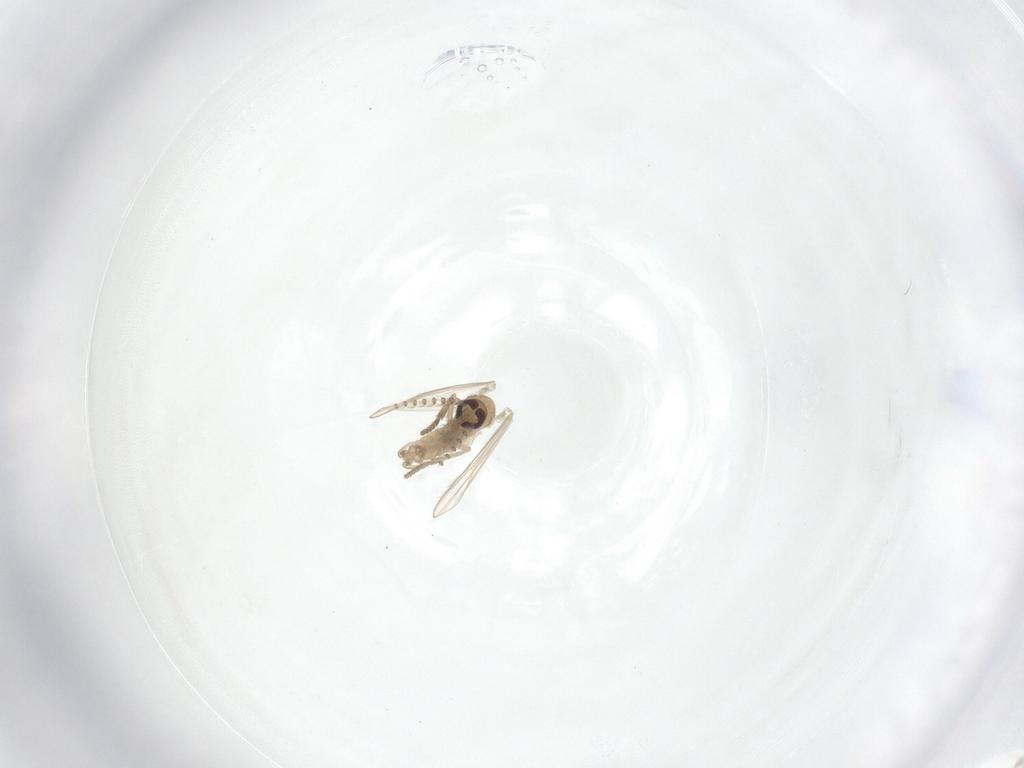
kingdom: Animalia
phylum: Arthropoda
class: Insecta
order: Diptera
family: Psychodidae
